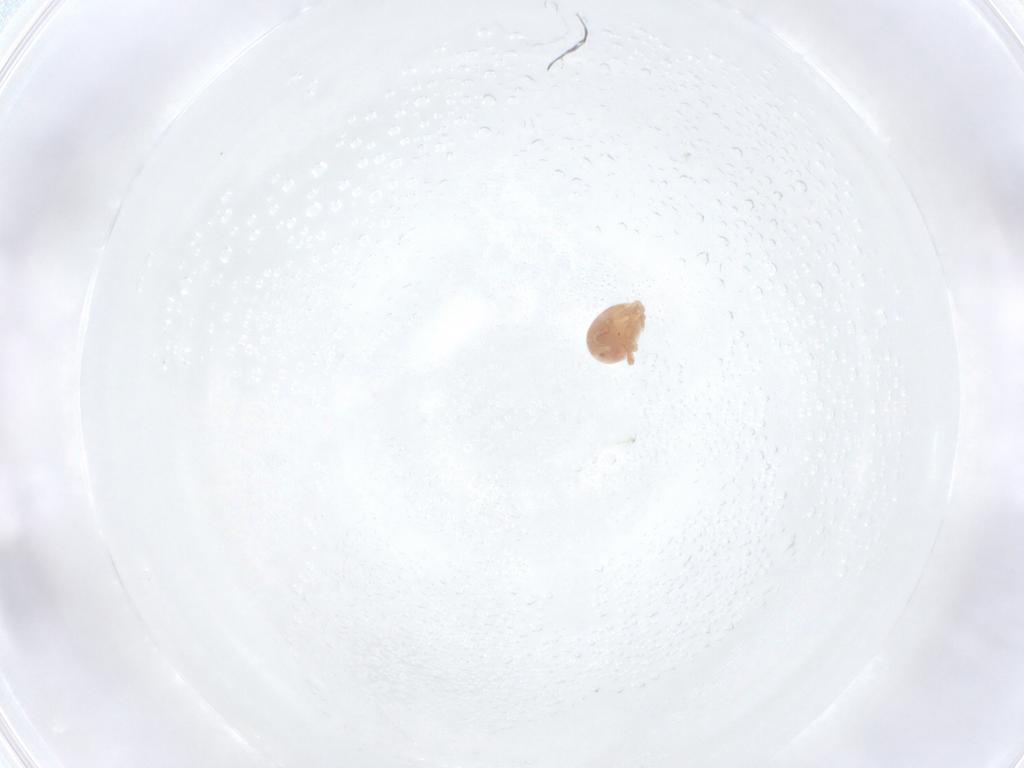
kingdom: Animalia
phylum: Arthropoda
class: Arachnida
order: Mesostigmata
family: Laelapidae
